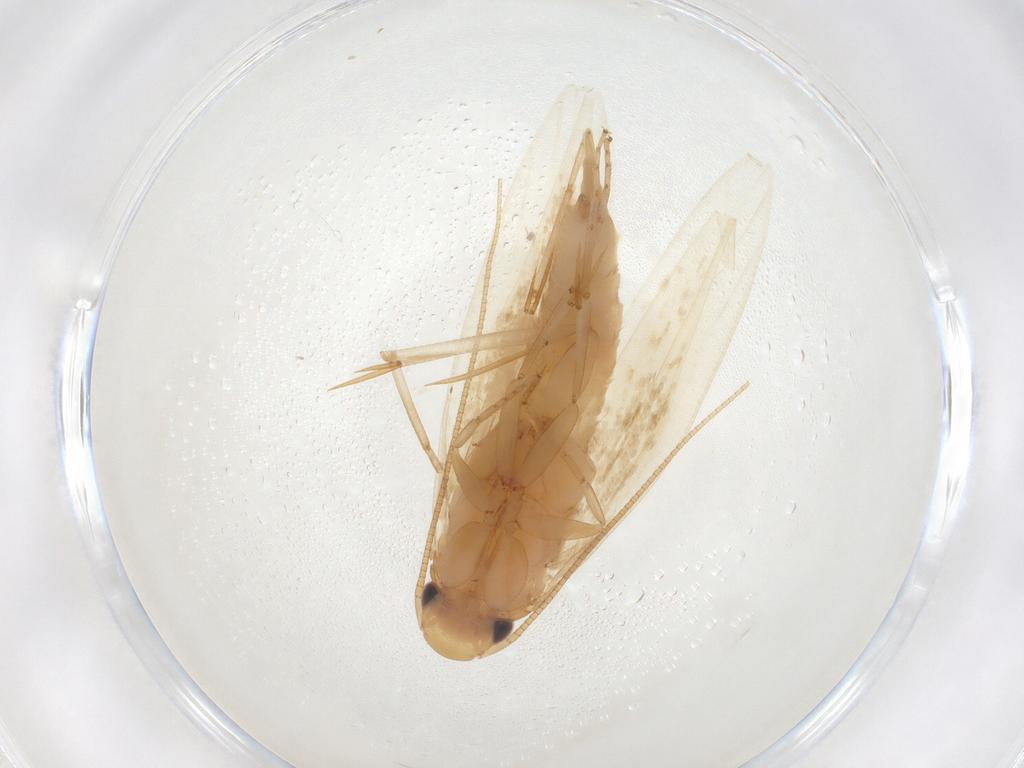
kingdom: Animalia
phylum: Arthropoda
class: Insecta
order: Lepidoptera
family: Tineidae
